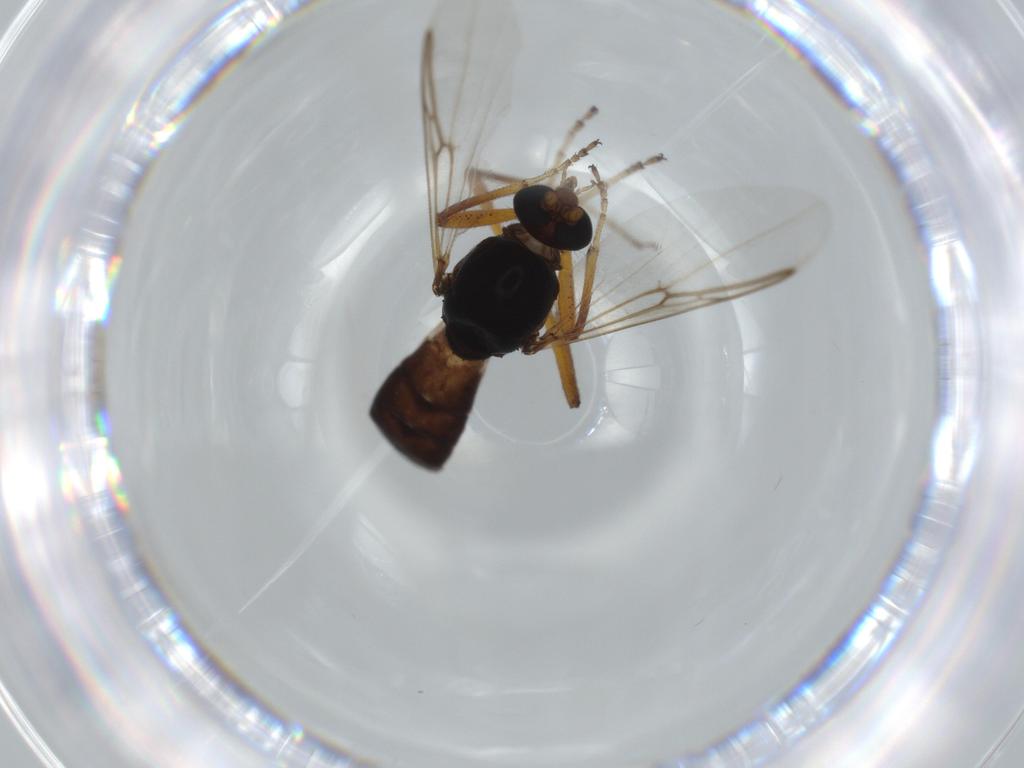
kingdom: Animalia
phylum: Arthropoda
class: Insecta
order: Diptera
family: Ceratopogonidae
